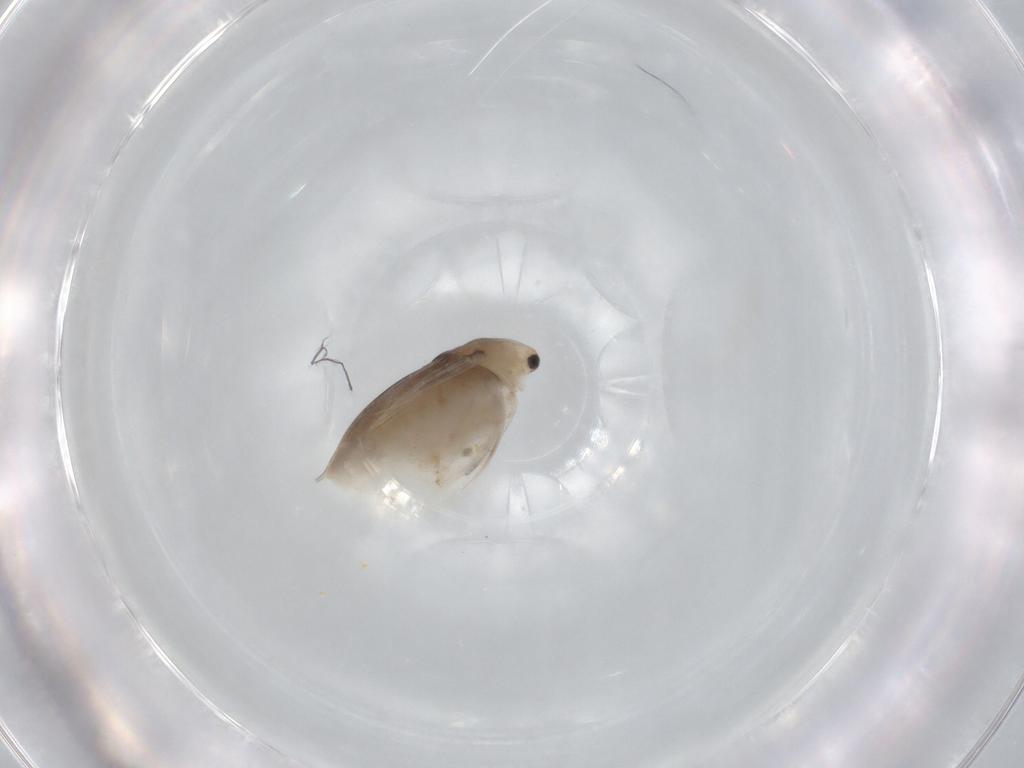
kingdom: Animalia
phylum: Arthropoda
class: Branchiopoda
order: Diplostraca
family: Daphniidae
